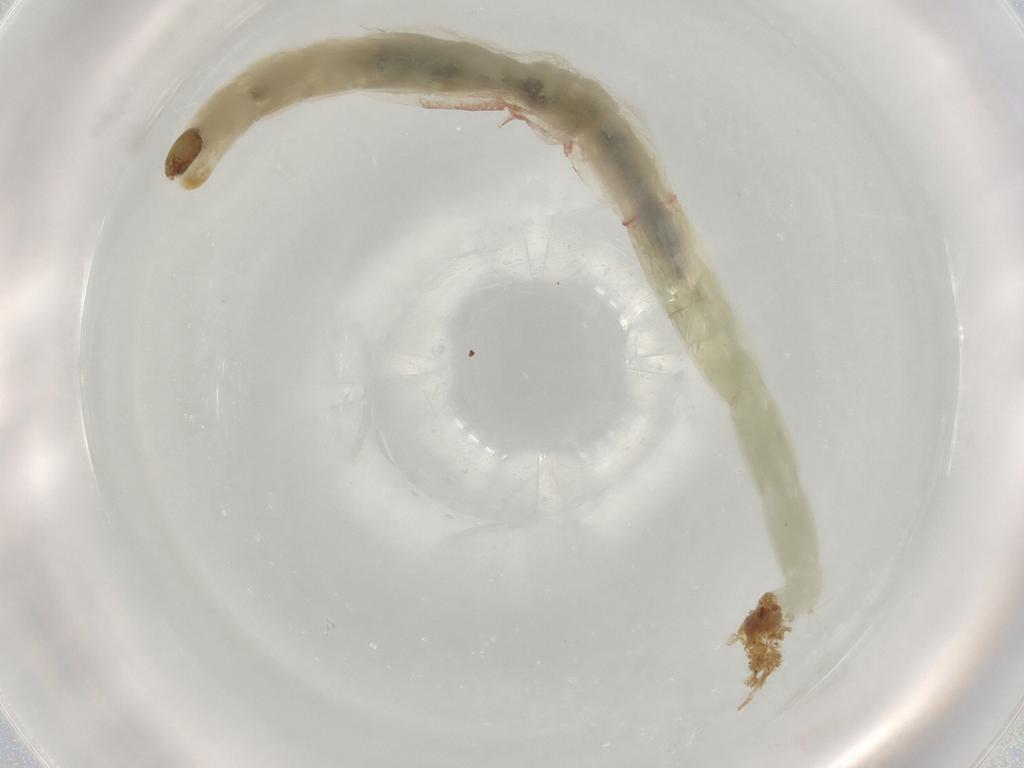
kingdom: Animalia
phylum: Arthropoda
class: Insecta
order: Diptera
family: Chironomidae
